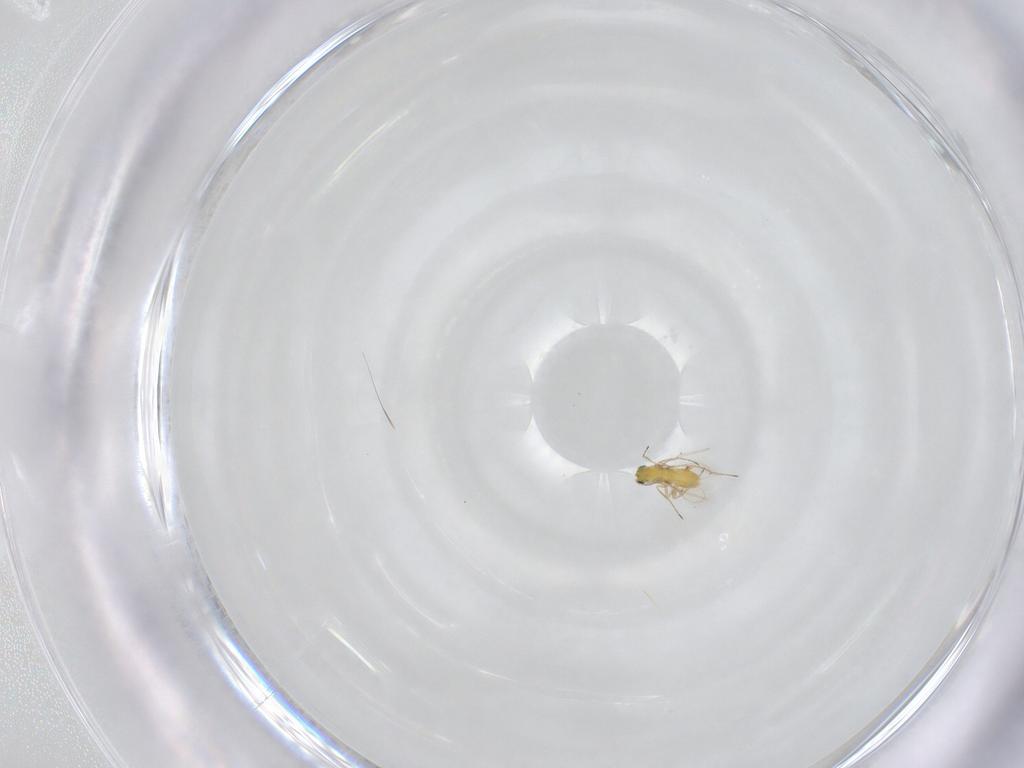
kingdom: Animalia
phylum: Arthropoda
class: Insecta
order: Hymenoptera
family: Trichogrammatidae
